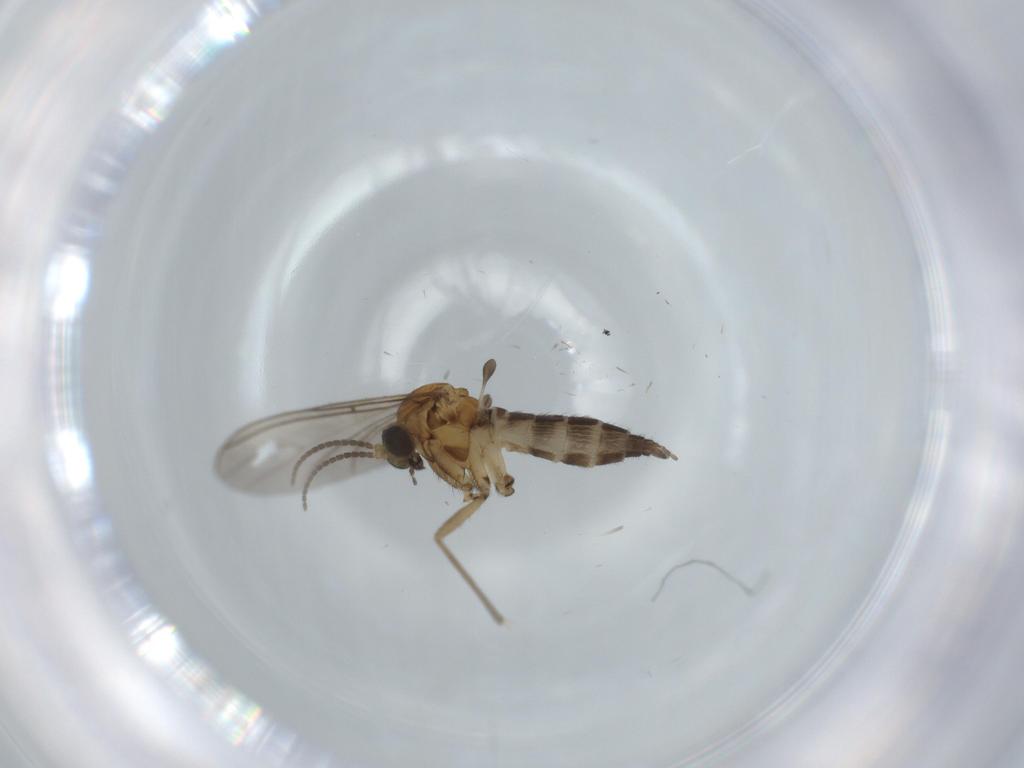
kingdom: Animalia
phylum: Arthropoda
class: Insecta
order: Diptera
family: Sciaridae
